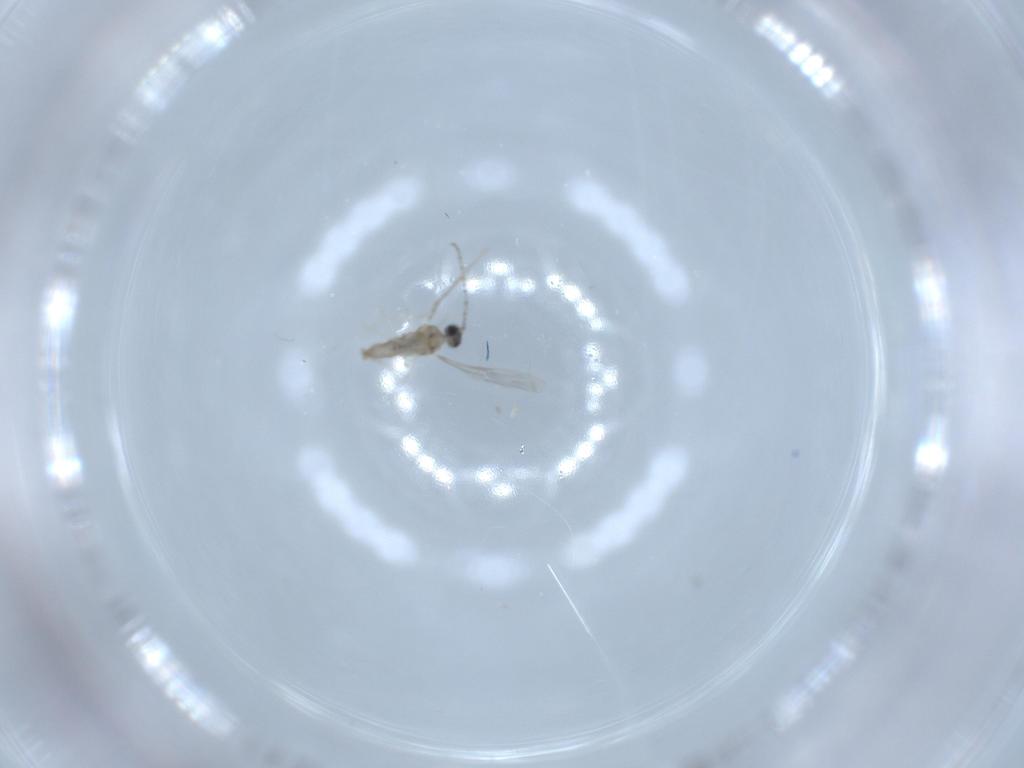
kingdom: Animalia
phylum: Arthropoda
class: Insecta
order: Diptera
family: Cecidomyiidae
